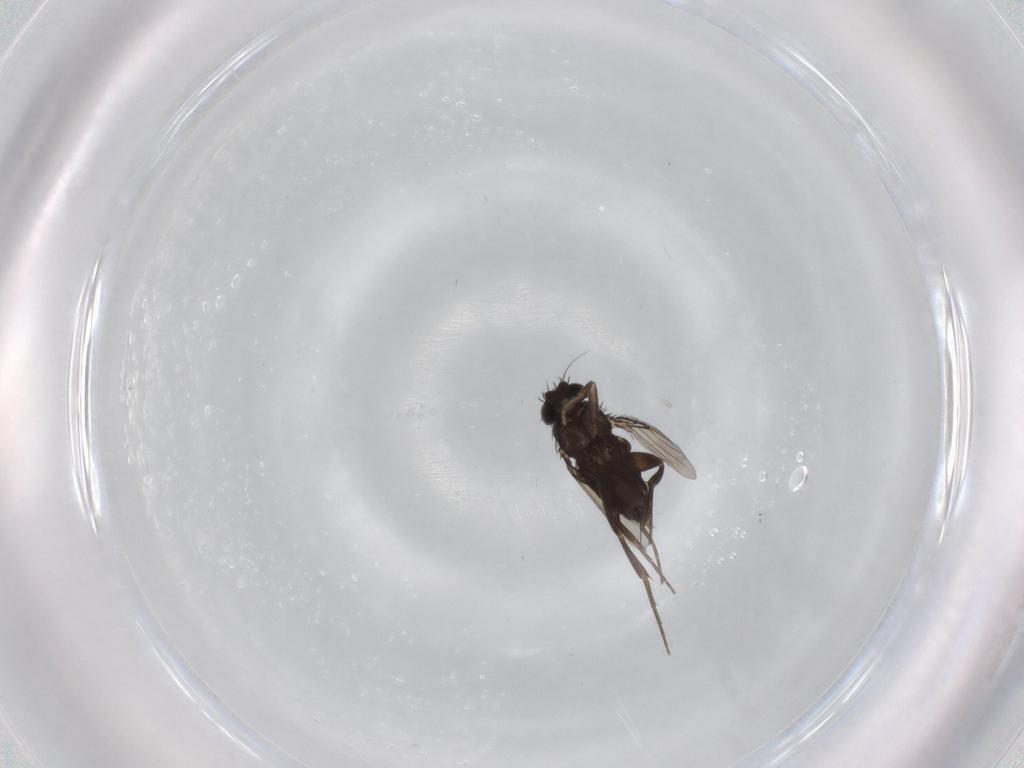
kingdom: Animalia
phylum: Arthropoda
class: Insecta
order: Diptera
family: Phoridae
